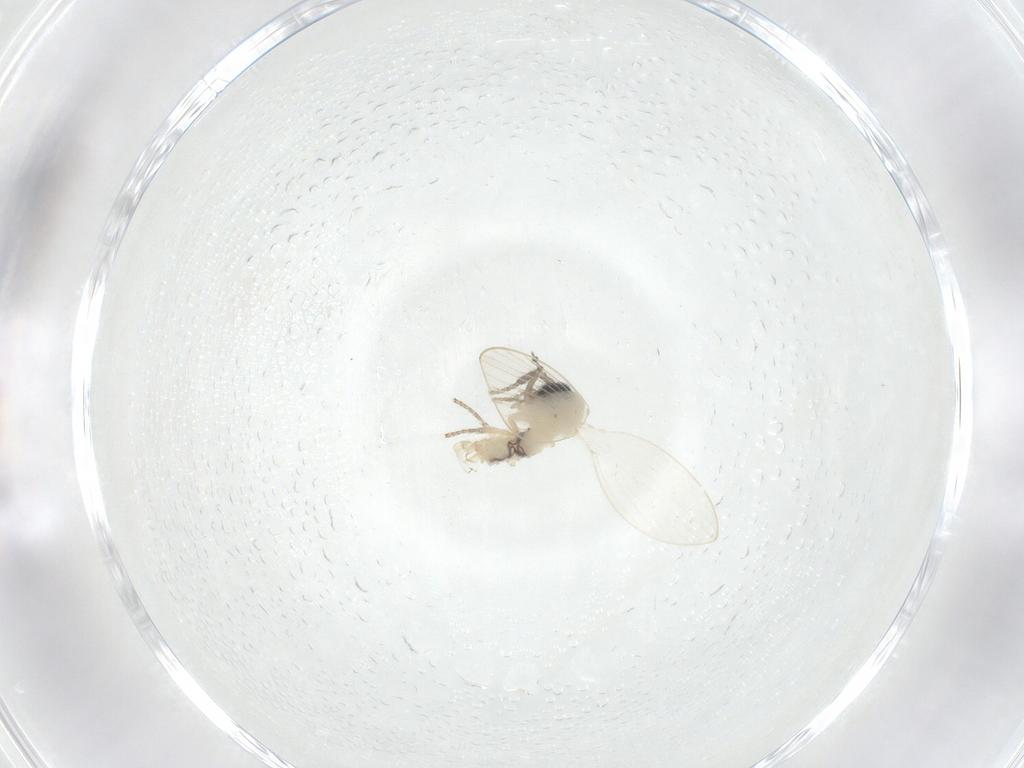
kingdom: Animalia
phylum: Arthropoda
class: Insecta
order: Diptera
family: Psychodidae
